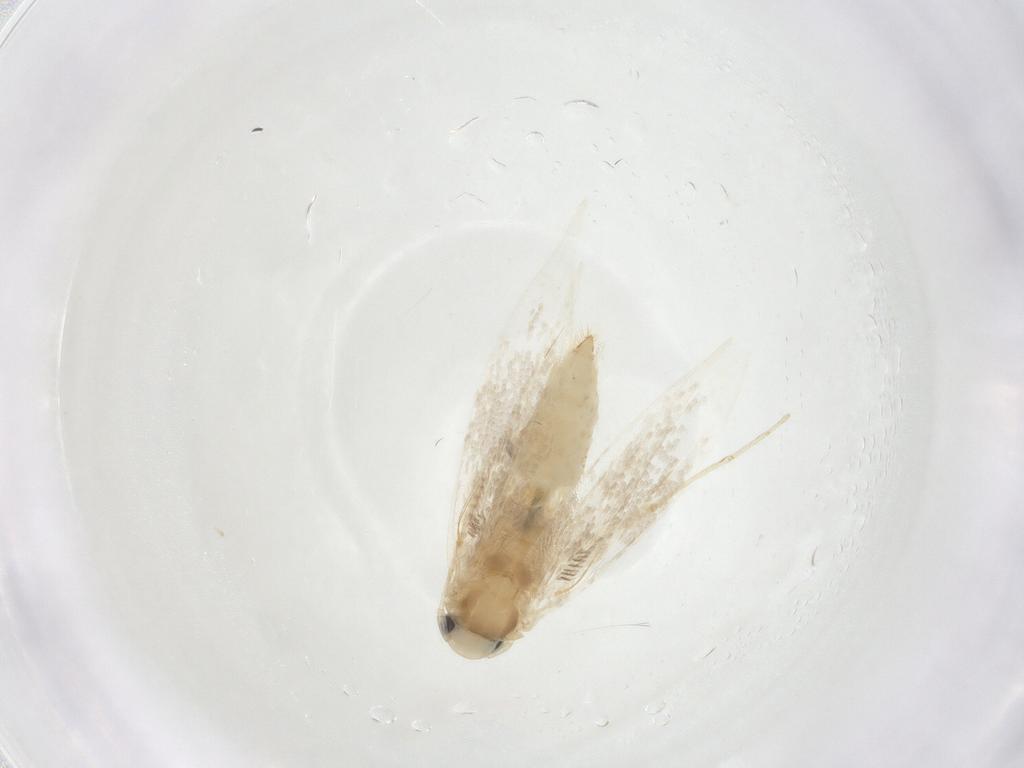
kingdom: Animalia
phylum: Arthropoda
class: Insecta
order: Lepidoptera
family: Gracillariidae
